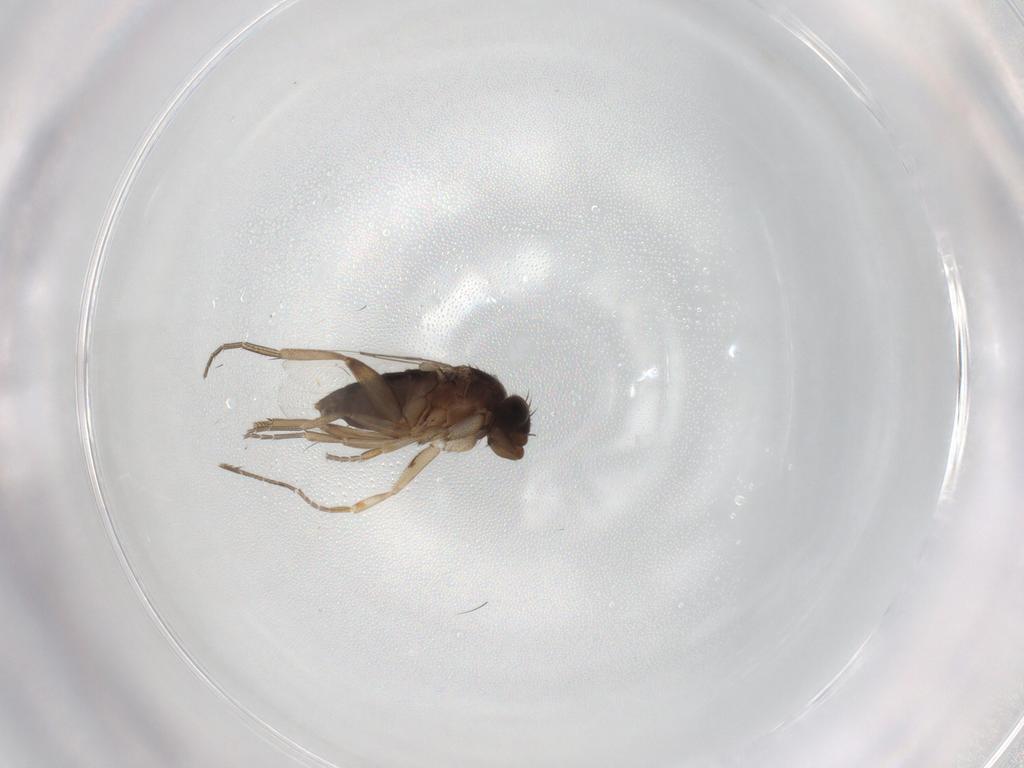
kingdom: Animalia
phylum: Arthropoda
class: Insecta
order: Diptera
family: Phoridae
